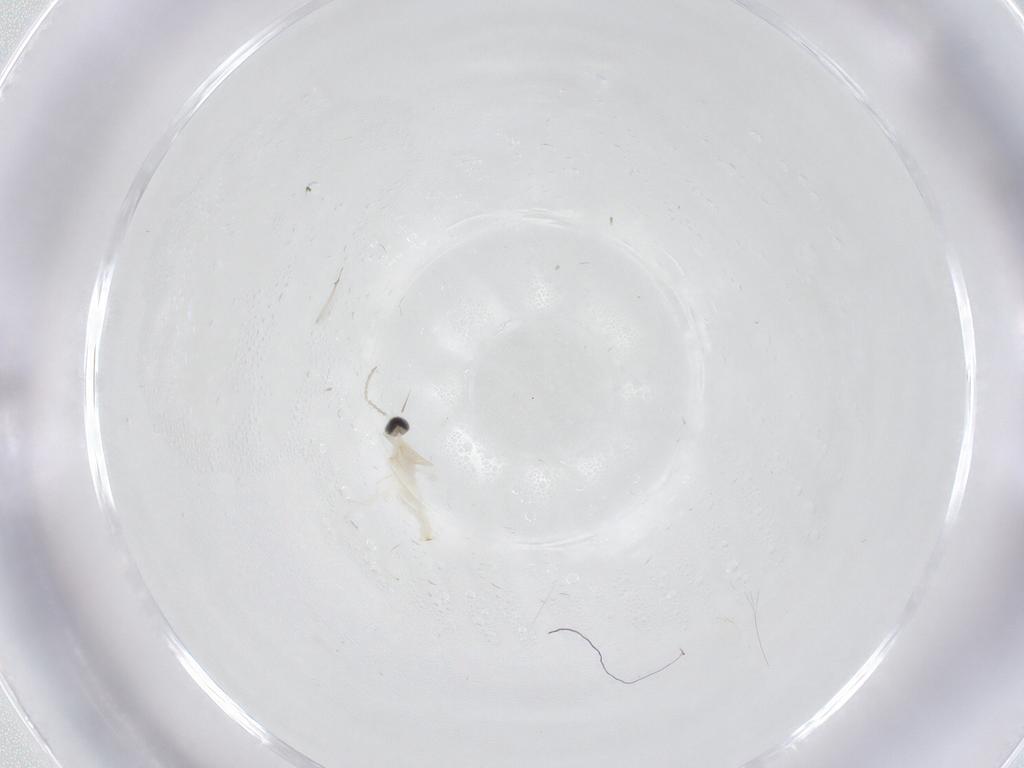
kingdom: Animalia
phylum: Arthropoda
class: Insecta
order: Diptera
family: Cecidomyiidae
